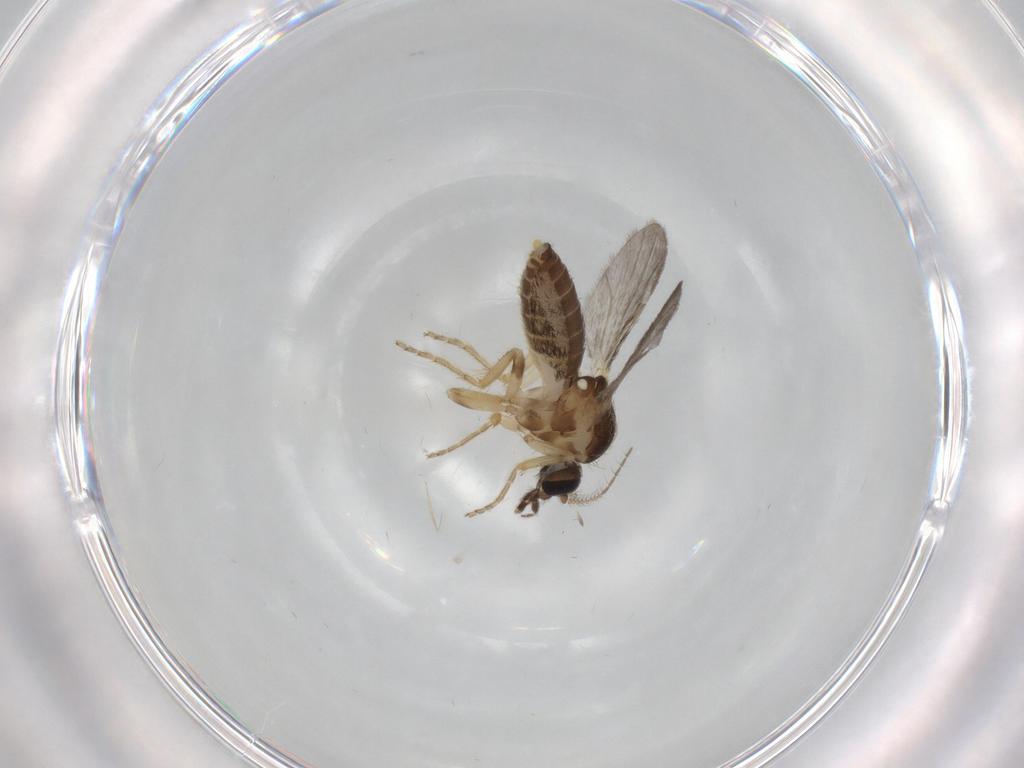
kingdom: Animalia
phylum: Arthropoda
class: Insecta
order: Diptera
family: Ceratopogonidae
